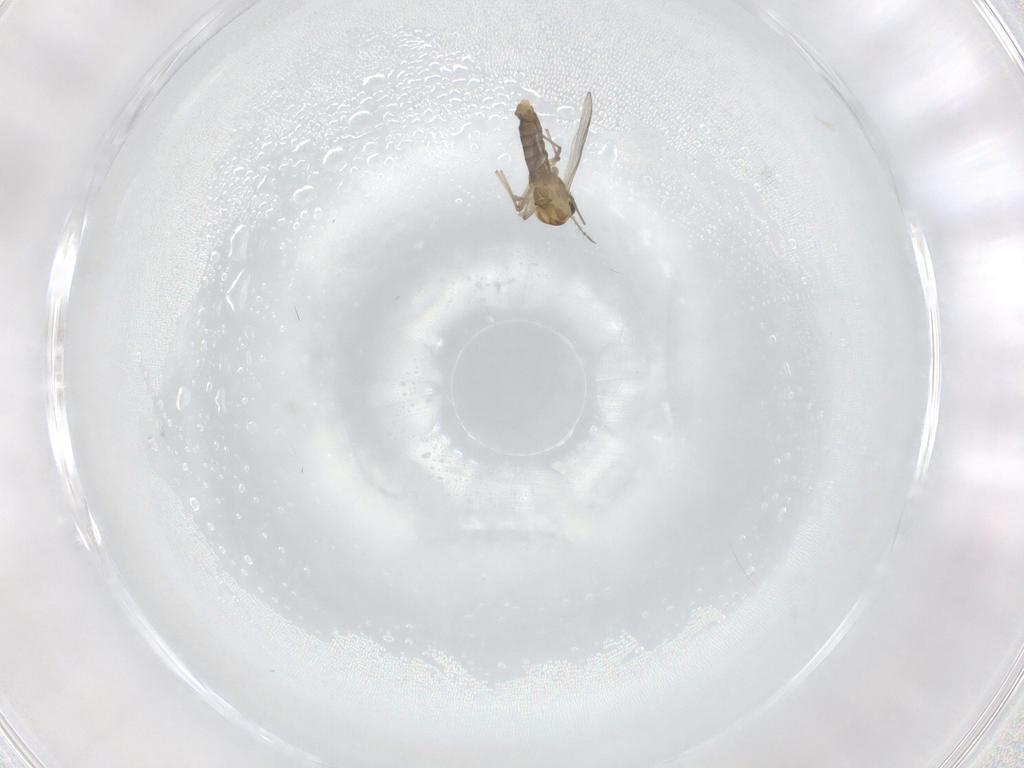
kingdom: Animalia
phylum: Arthropoda
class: Insecta
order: Diptera
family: Chironomidae
